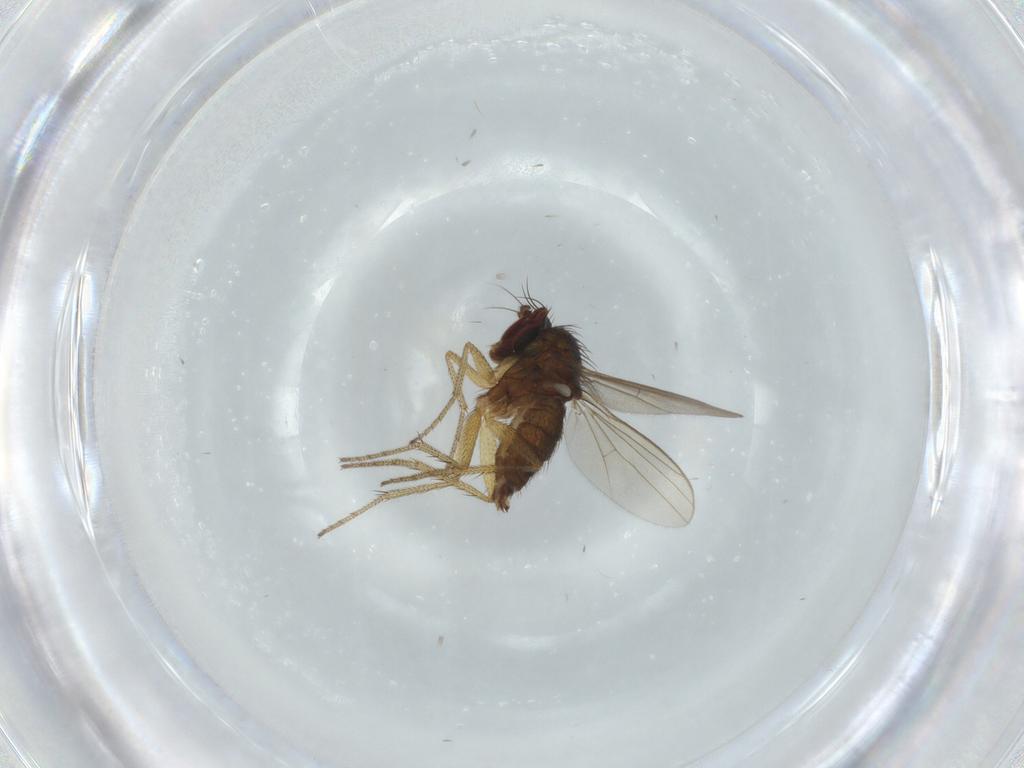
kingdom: Animalia
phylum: Arthropoda
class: Insecta
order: Diptera
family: Dolichopodidae
